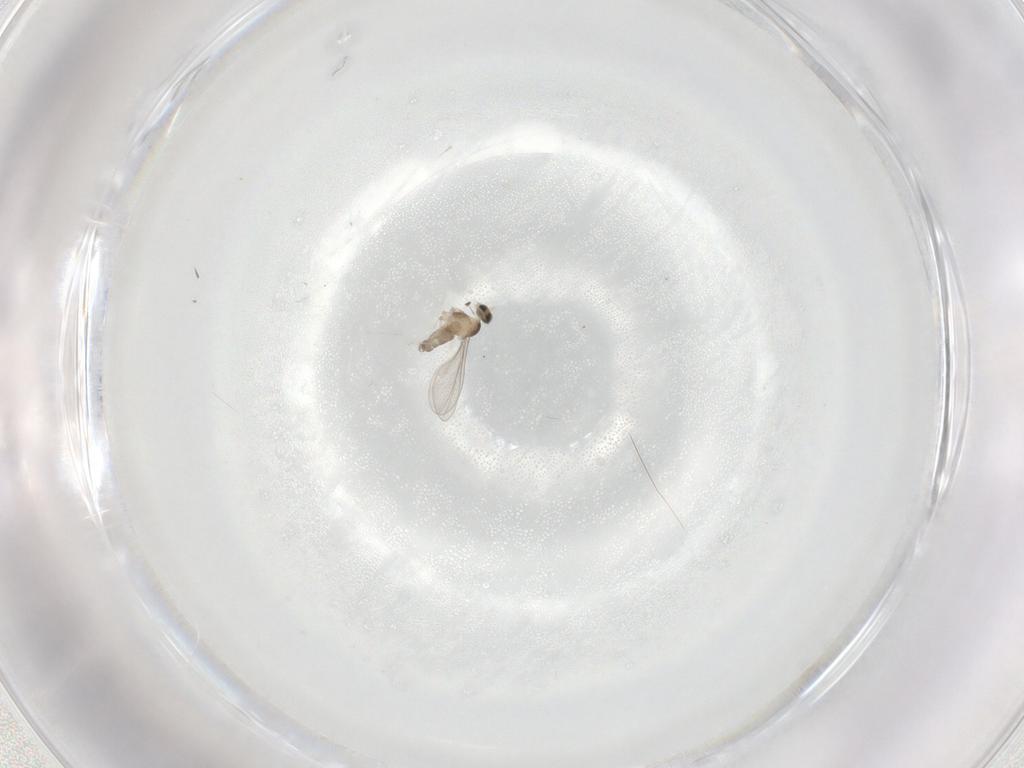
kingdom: Animalia
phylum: Arthropoda
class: Insecta
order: Diptera
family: Cecidomyiidae
